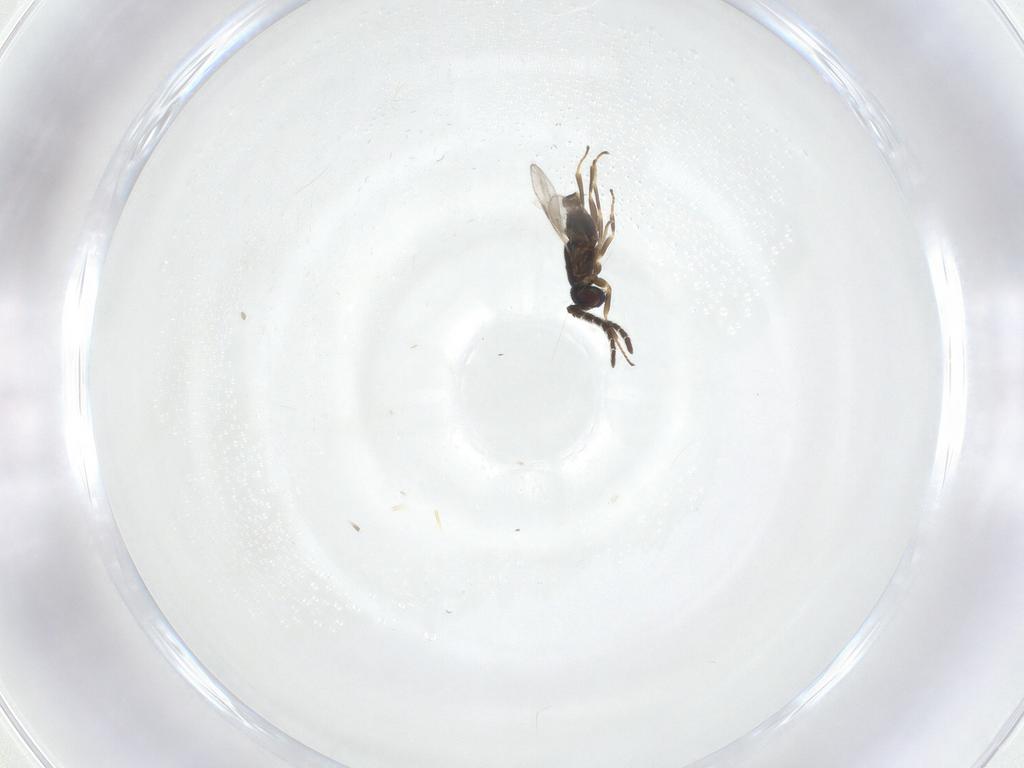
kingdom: Animalia
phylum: Arthropoda
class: Insecta
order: Hymenoptera
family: Encyrtidae
